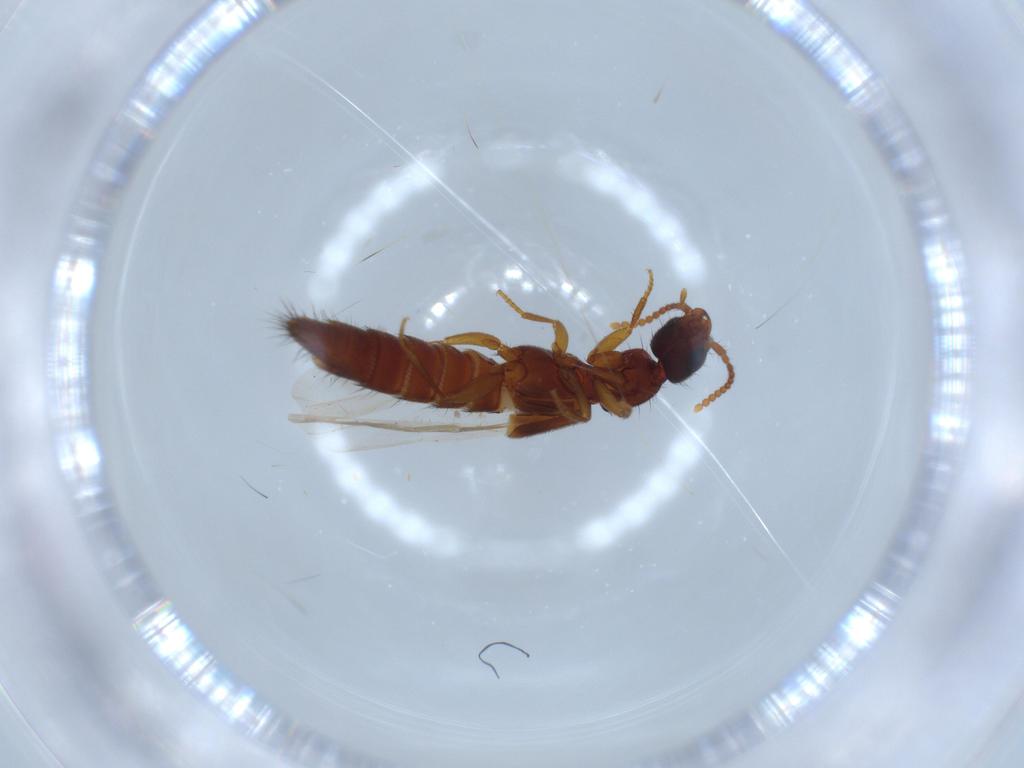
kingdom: Animalia
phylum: Arthropoda
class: Insecta
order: Coleoptera
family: Staphylinidae
